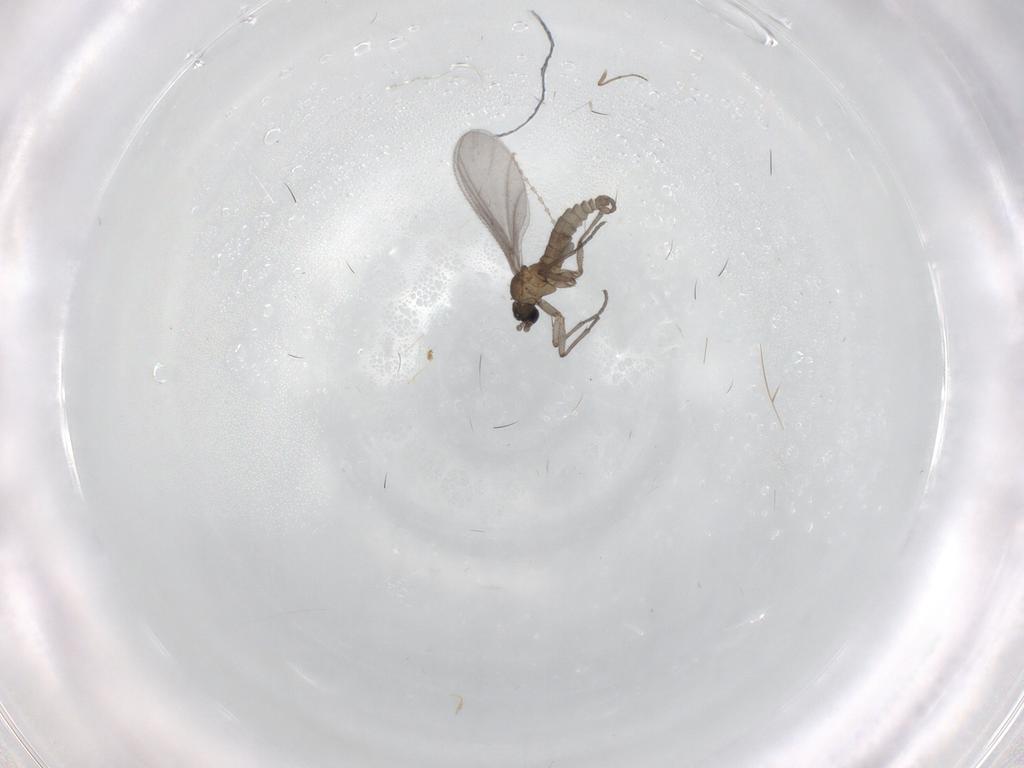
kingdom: Animalia
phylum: Arthropoda
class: Insecta
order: Diptera
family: Chironomidae
